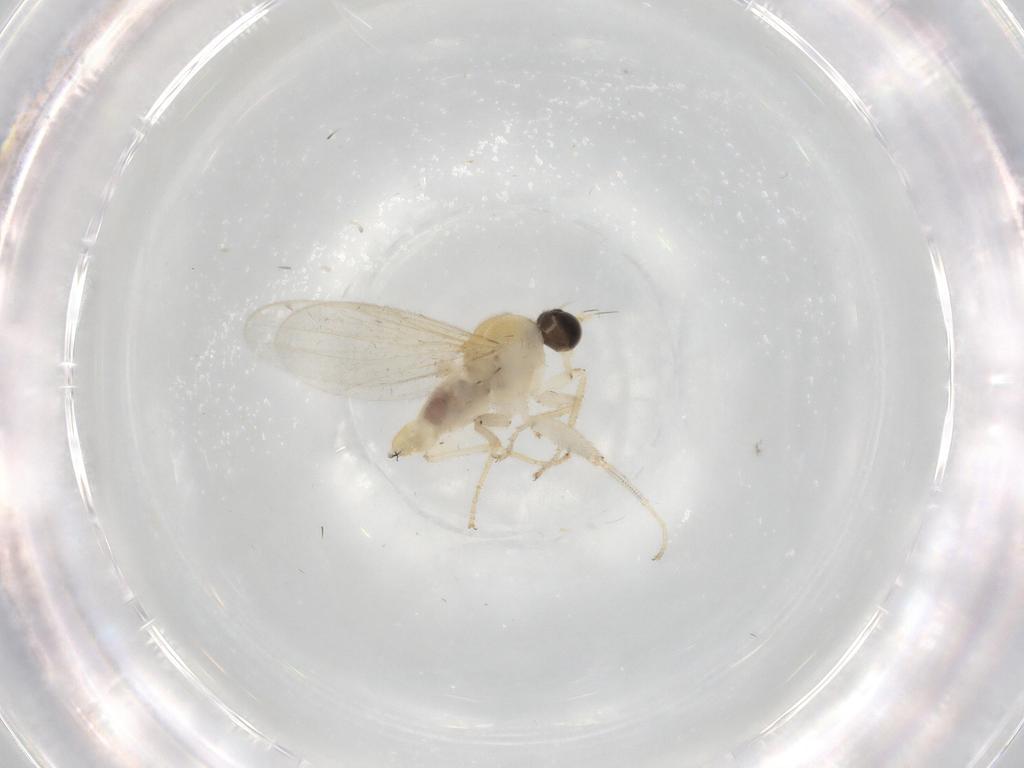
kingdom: Animalia
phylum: Arthropoda
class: Insecta
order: Diptera
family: Cecidomyiidae
